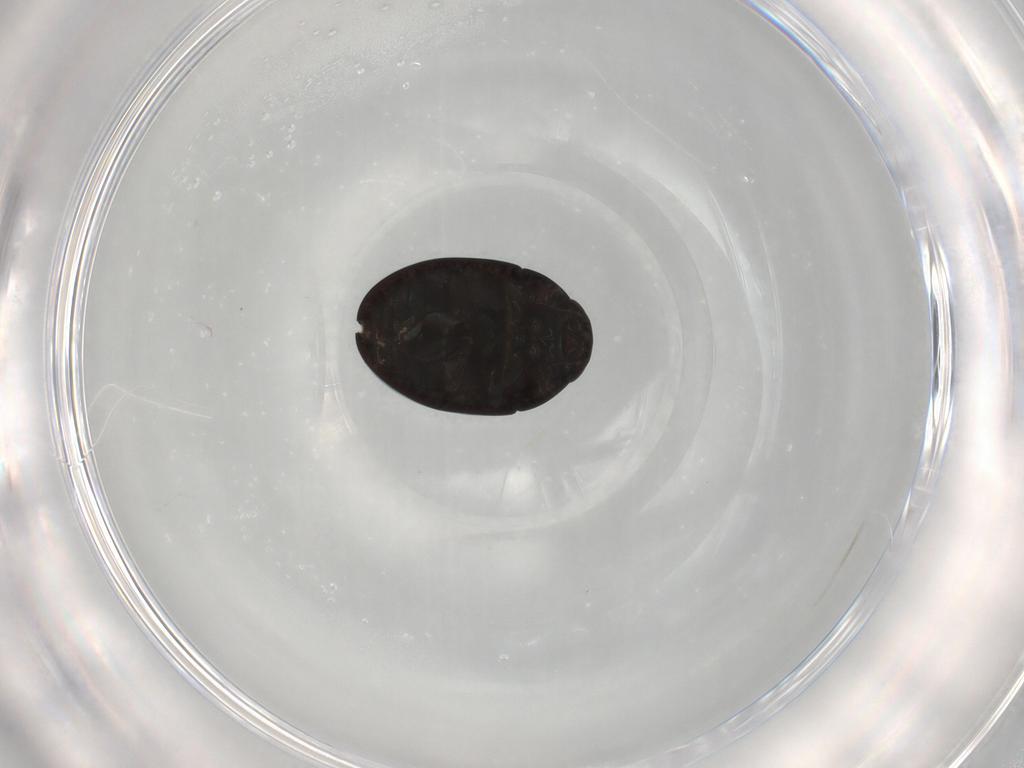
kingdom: Animalia
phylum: Arthropoda
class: Insecta
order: Coleoptera
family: Phalacridae
